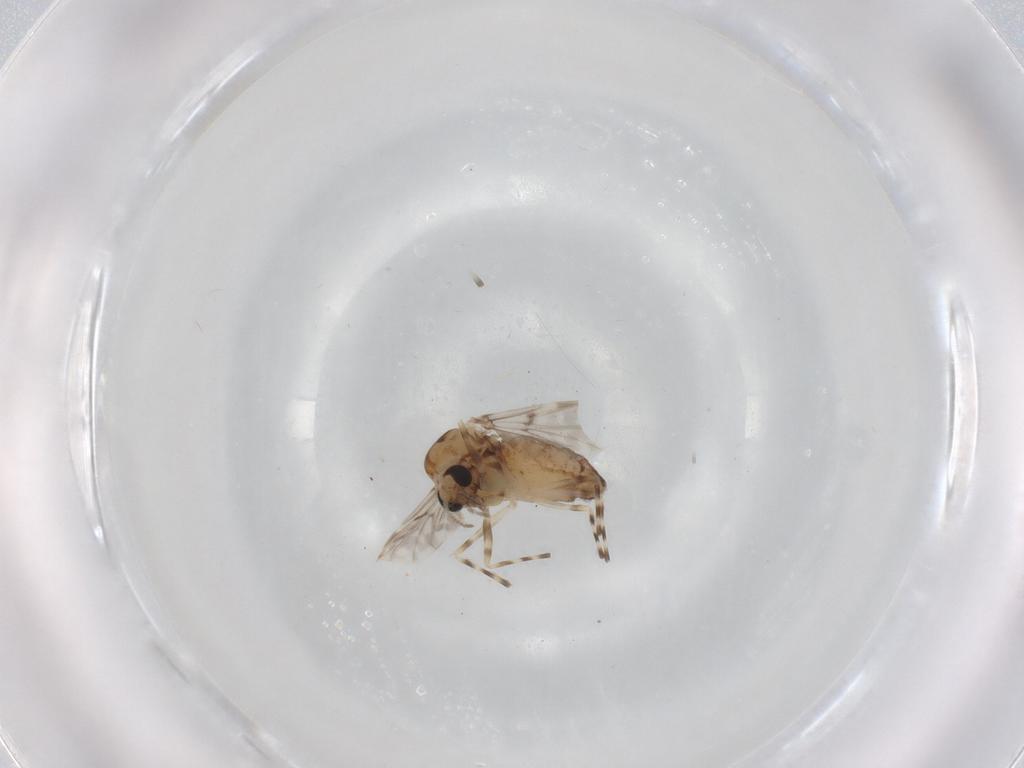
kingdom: Animalia
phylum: Arthropoda
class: Insecta
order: Diptera
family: Chironomidae
